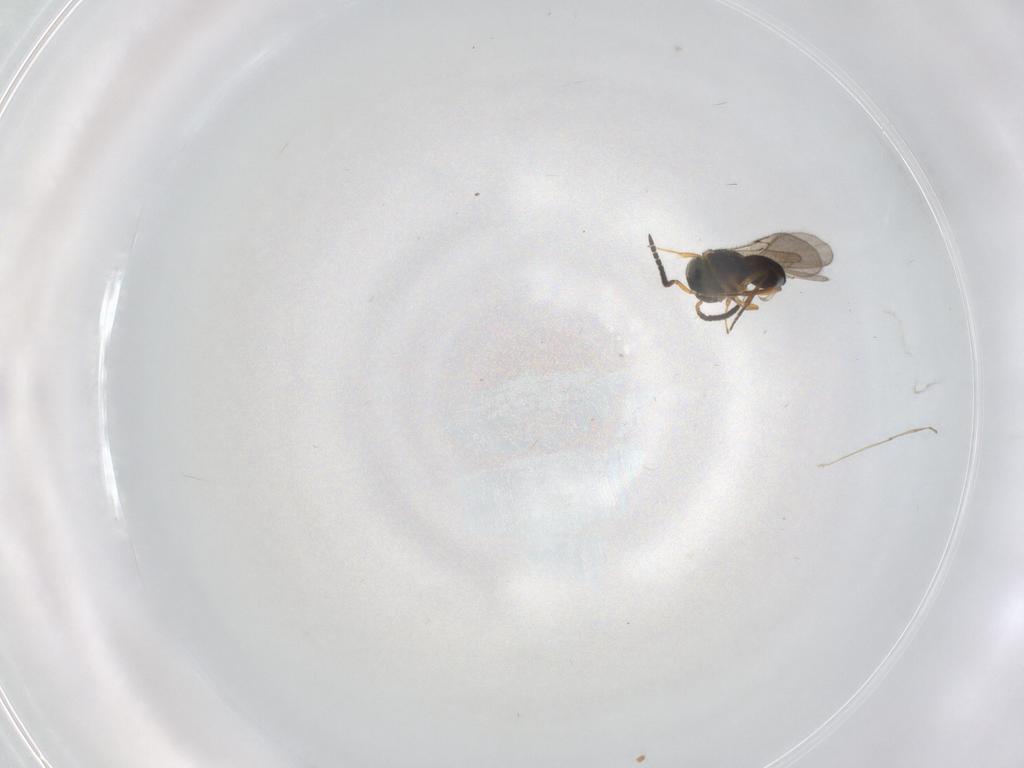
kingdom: Animalia
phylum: Arthropoda
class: Insecta
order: Hymenoptera
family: Scelionidae
